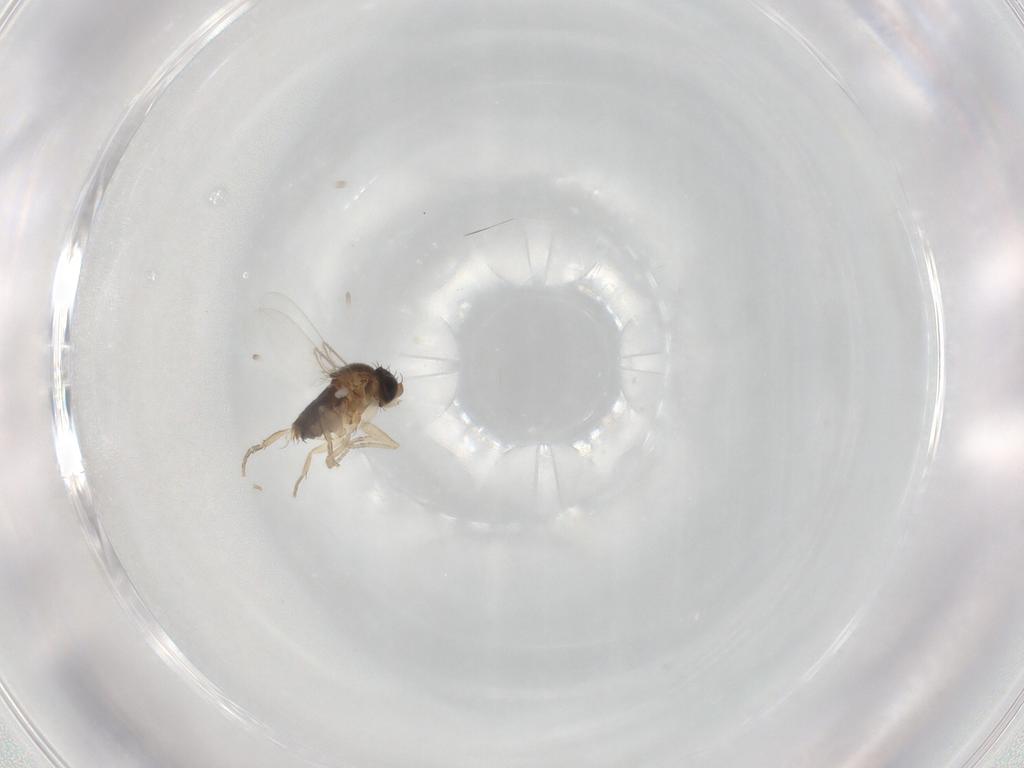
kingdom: Animalia
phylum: Arthropoda
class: Insecta
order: Diptera
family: Phoridae
